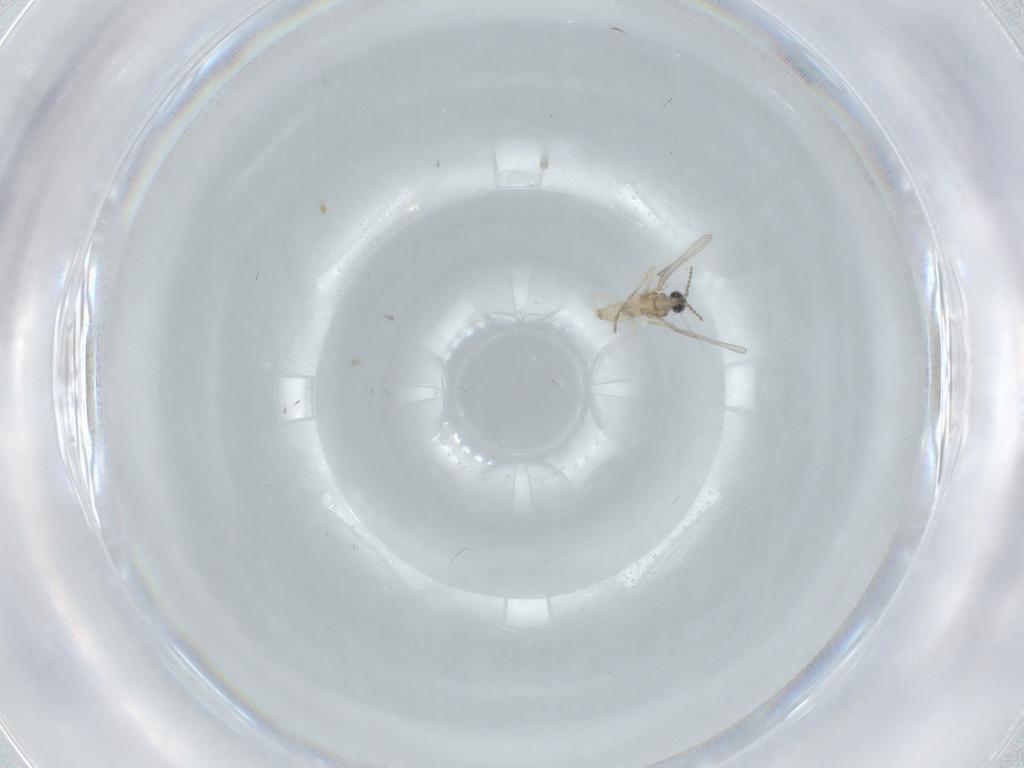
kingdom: Animalia
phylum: Arthropoda
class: Insecta
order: Diptera
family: Cecidomyiidae
